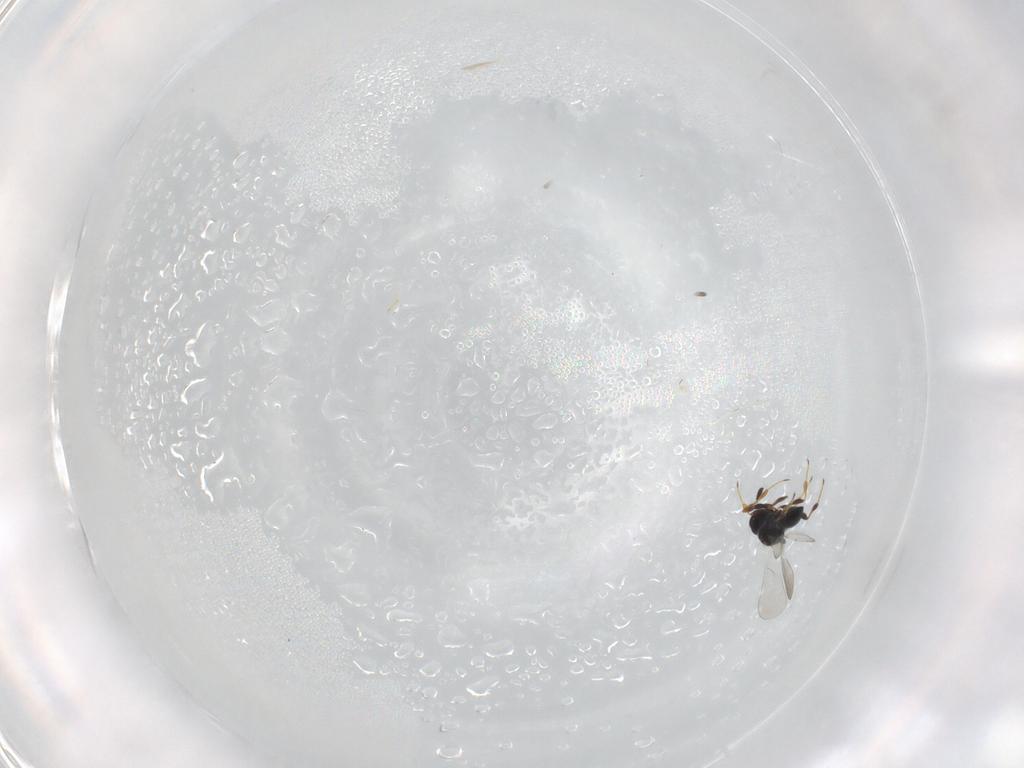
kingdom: Animalia
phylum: Arthropoda
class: Insecta
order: Hymenoptera
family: Platygastridae
